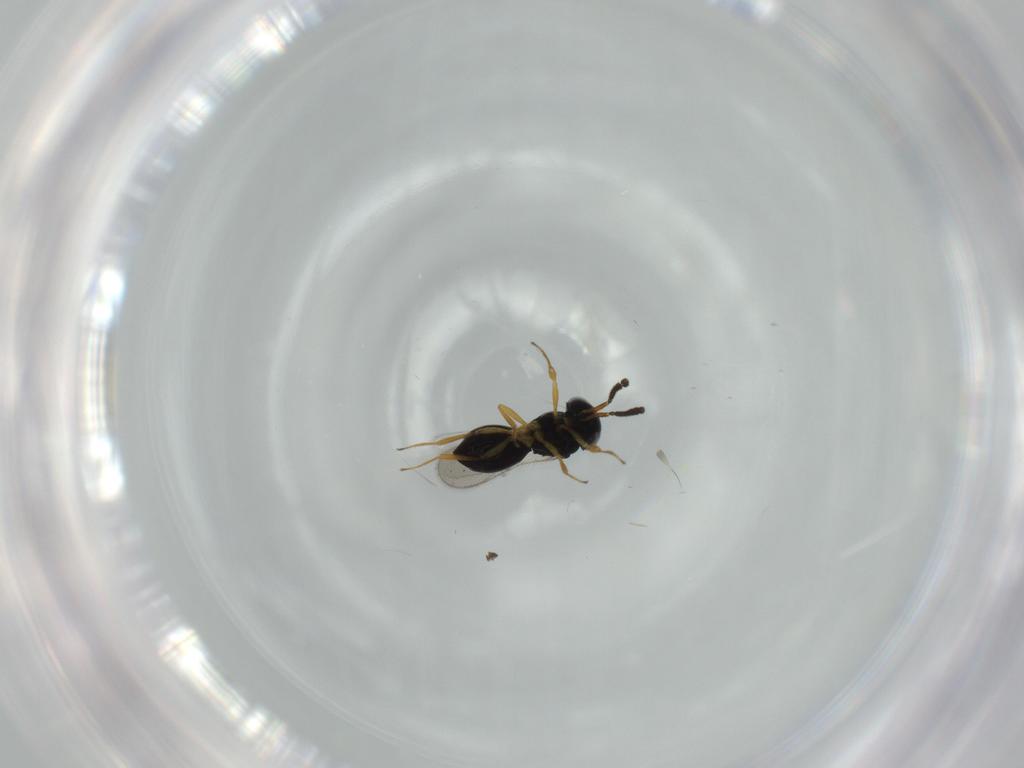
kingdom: Animalia
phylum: Arthropoda
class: Insecta
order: Hymenoptera
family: Scelionidae
